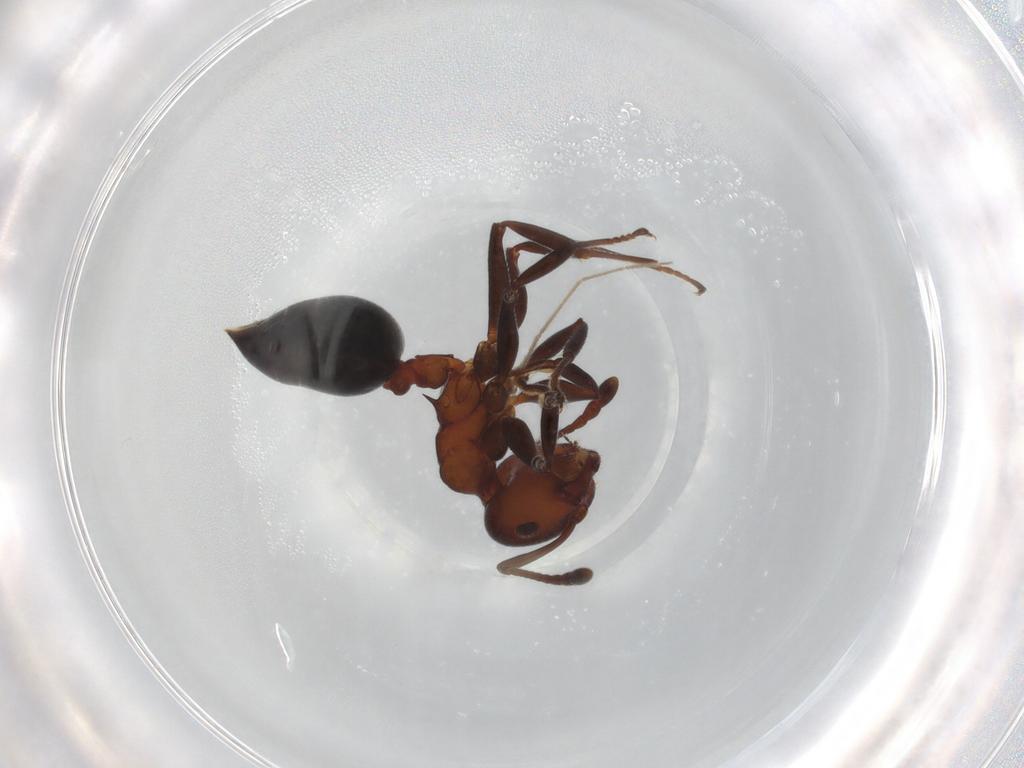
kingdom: Animalia
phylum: Arthropoda
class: Insecta
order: Hymenoptera
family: Formicidae
